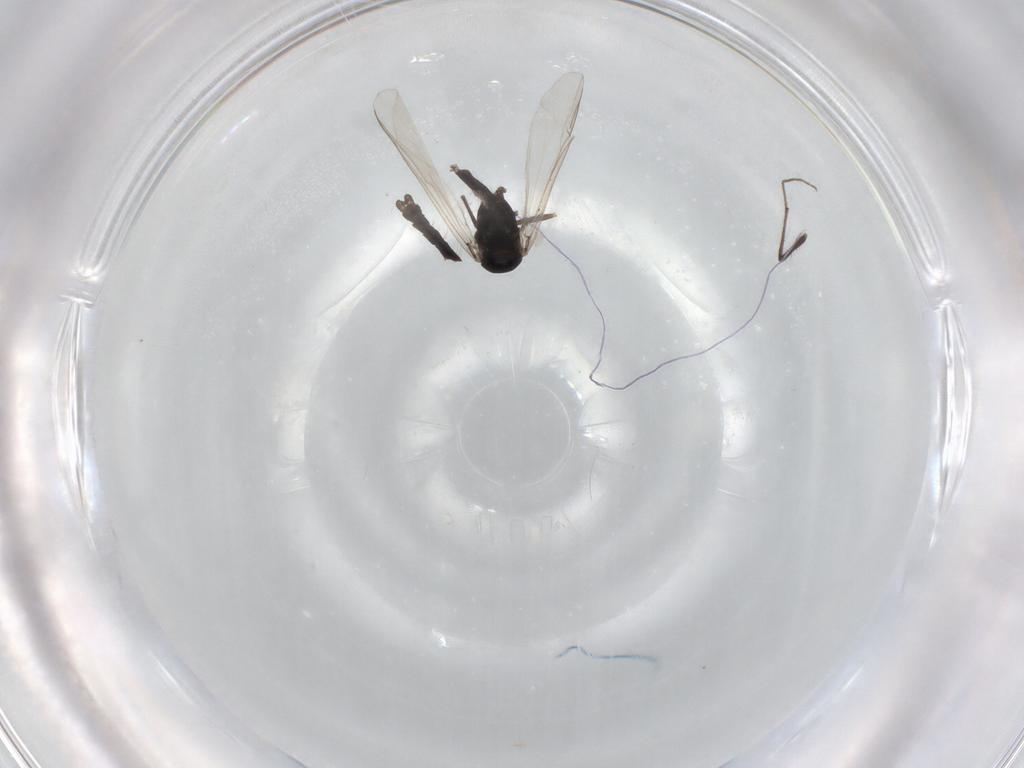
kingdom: Animalia
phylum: Arthropoda
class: Insecta
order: Diptera
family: Chironomidae
